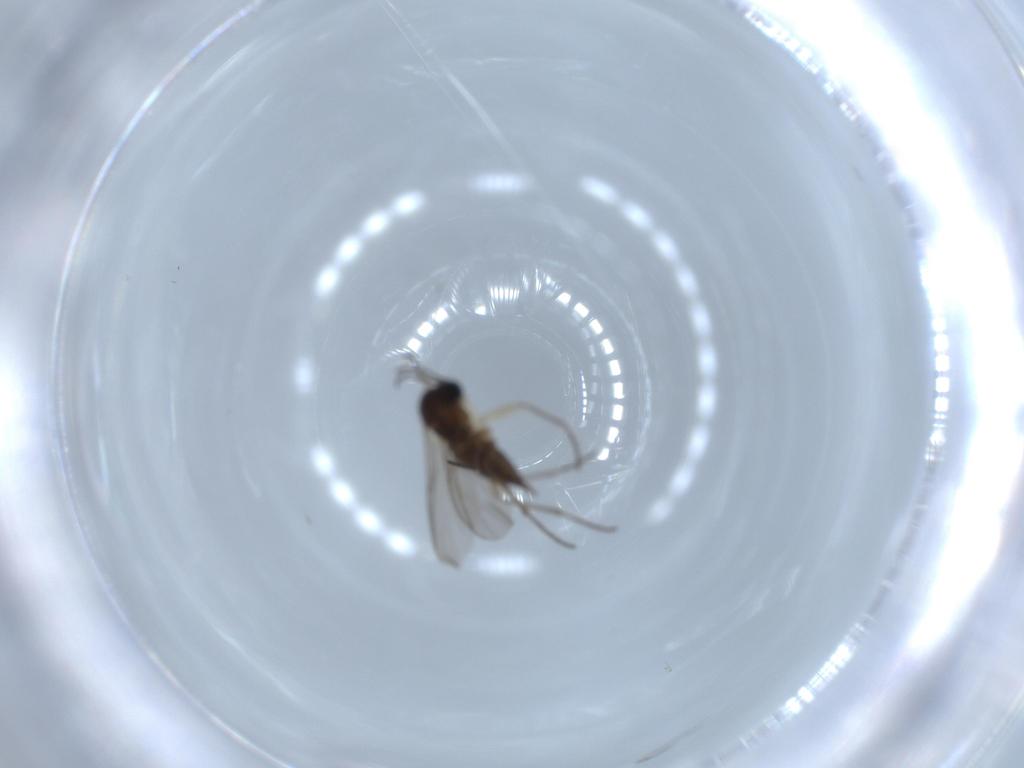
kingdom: Animalia
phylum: Arthropoda
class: Insecta
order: Diptera
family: Sciaridae
